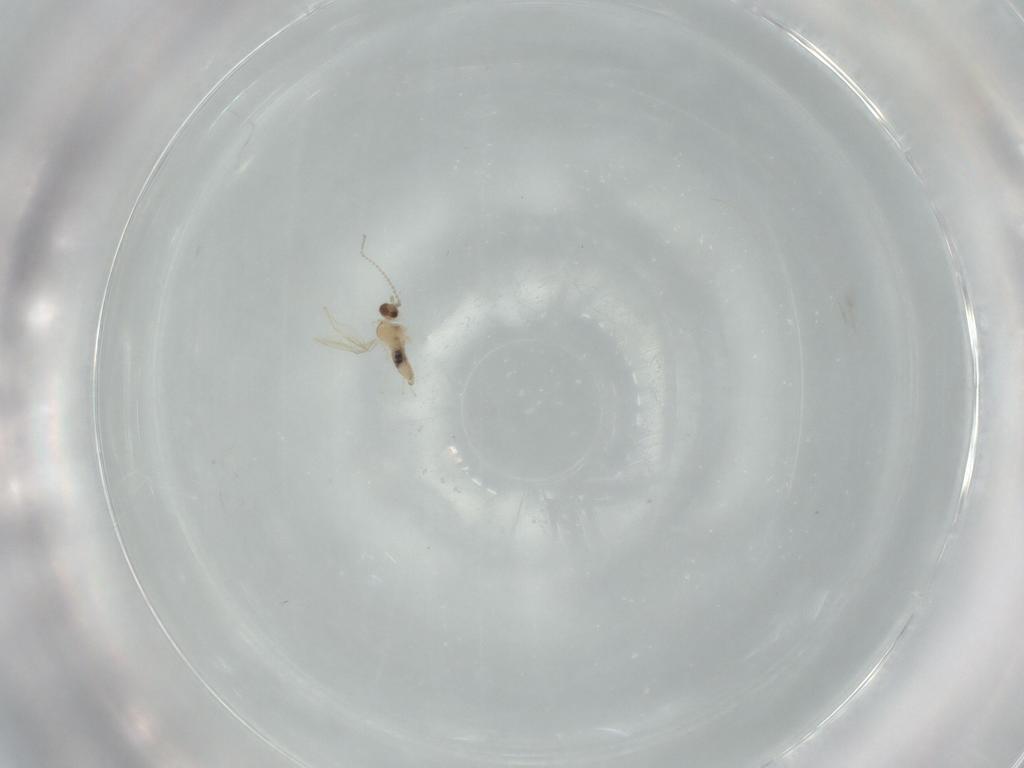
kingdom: Animalia
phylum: Arthropoda
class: Insecta
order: Diptera
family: Cecidomyiidae
